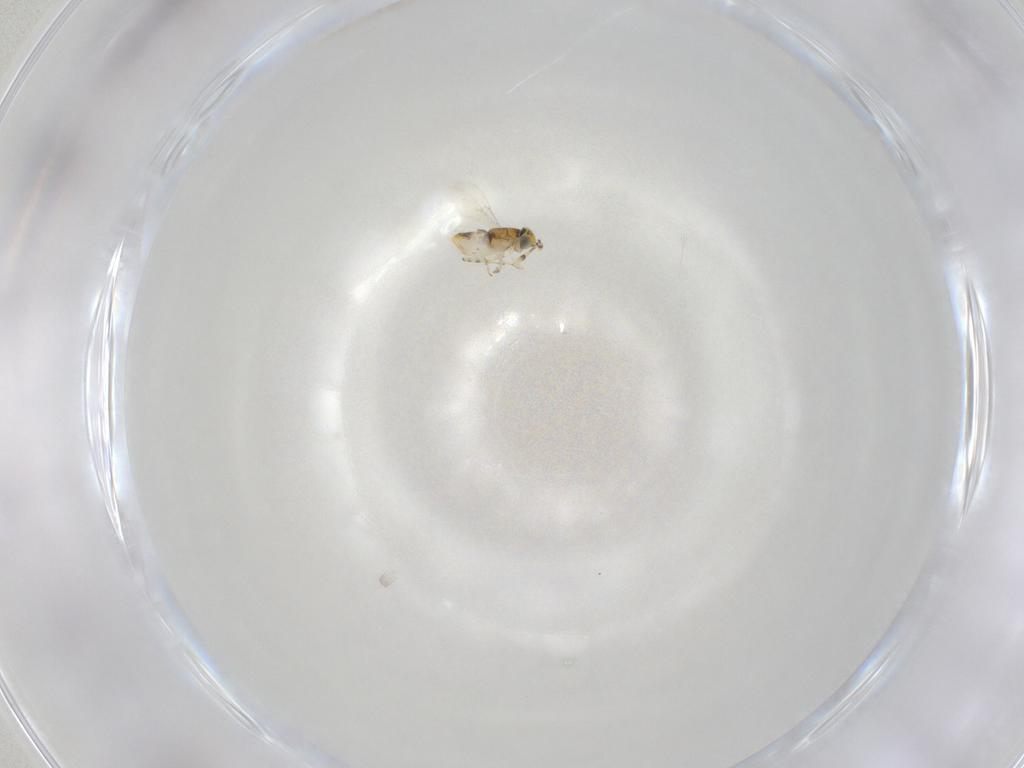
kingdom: Animalia
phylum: Arthropoda
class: Insecta
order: Hymenoptera
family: Encyrtidae
